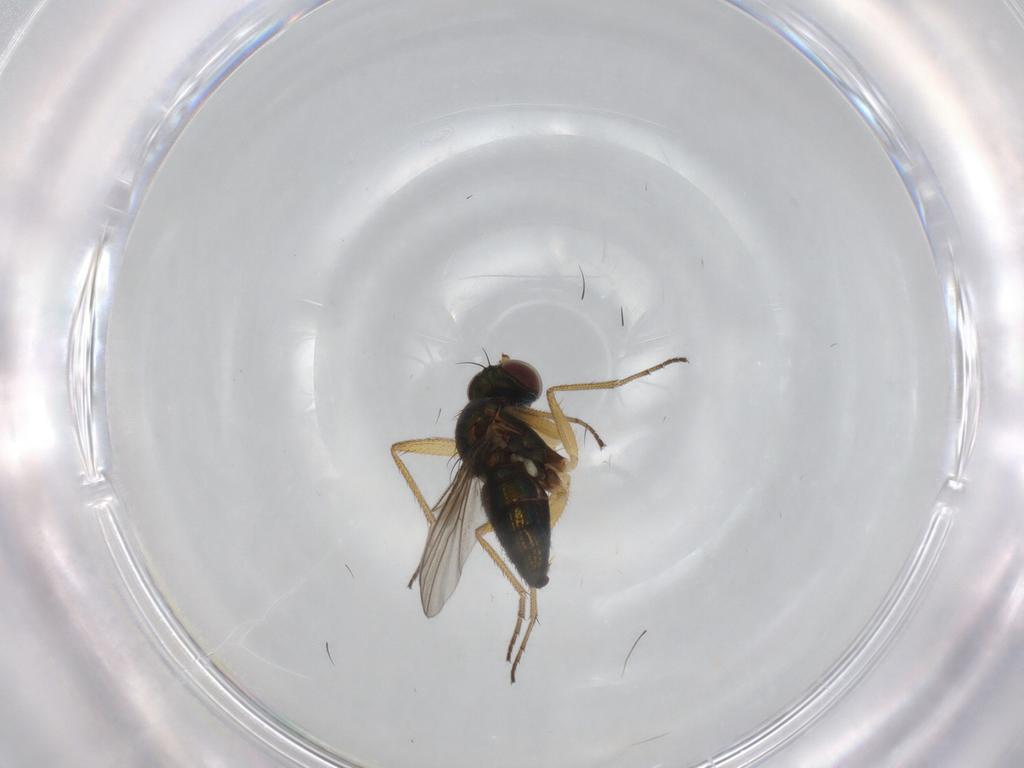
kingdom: Animalia
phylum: Arthropoda
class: Insecta
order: Diptera
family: Dolichopodidae
